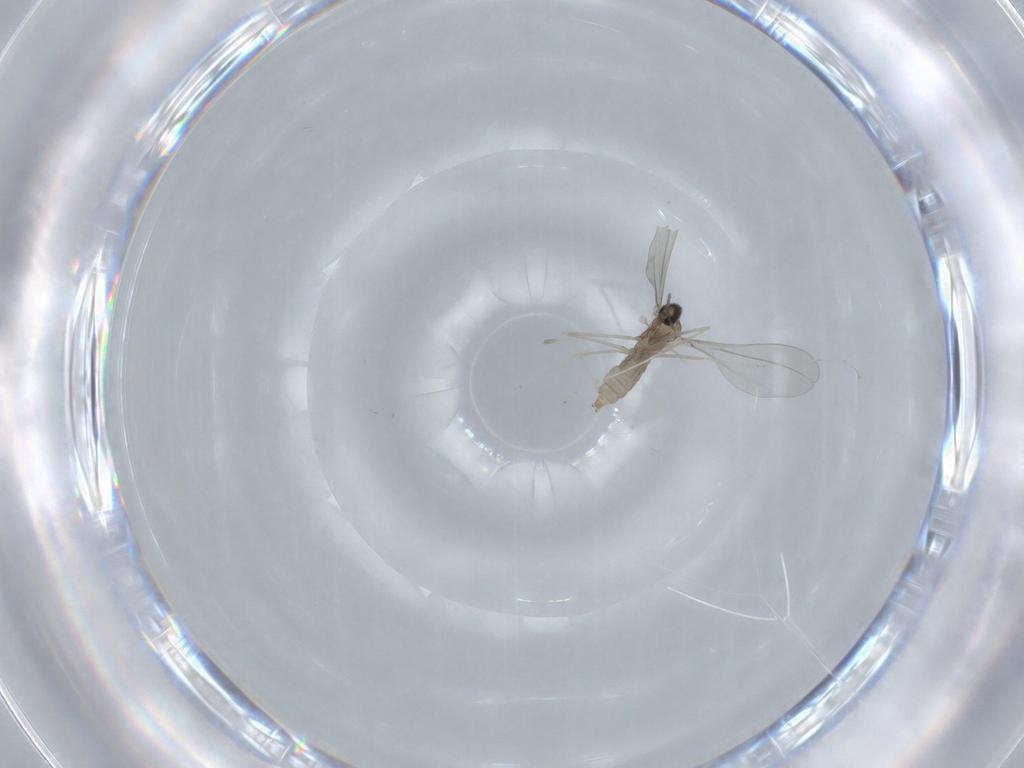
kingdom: Animalia
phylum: Arthropoda
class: Insecta
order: Diptera
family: Cecidomyiidae
